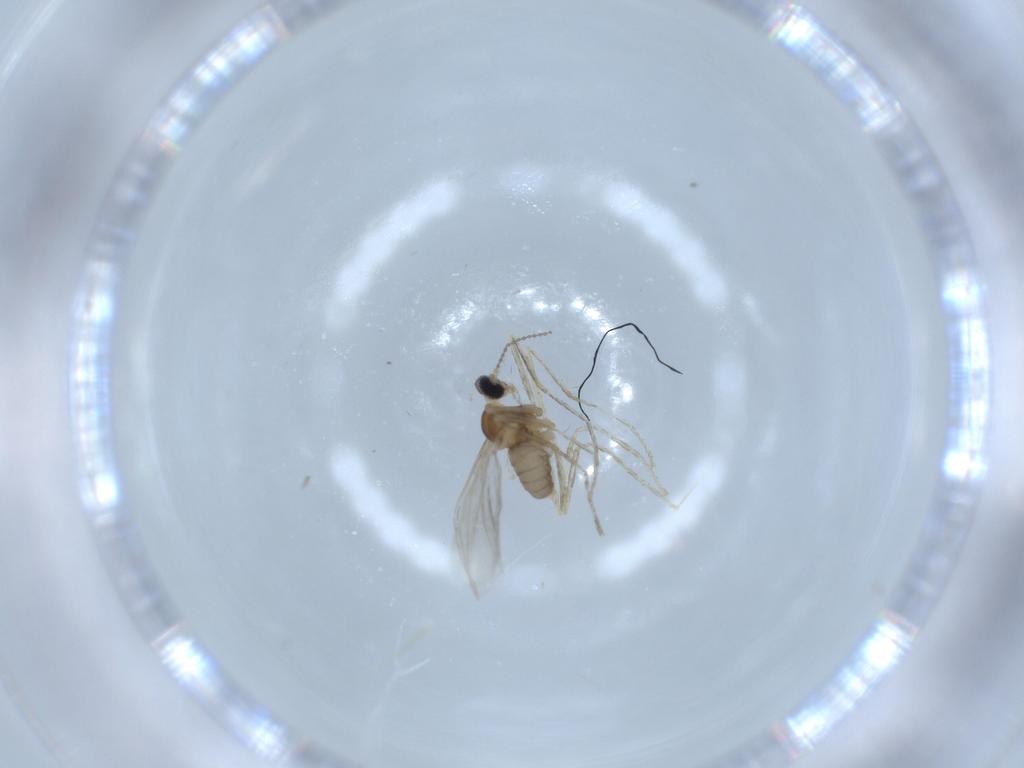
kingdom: Animalia
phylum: Arthropoda
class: Insecta
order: Diptera
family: Cecidomyiidae
